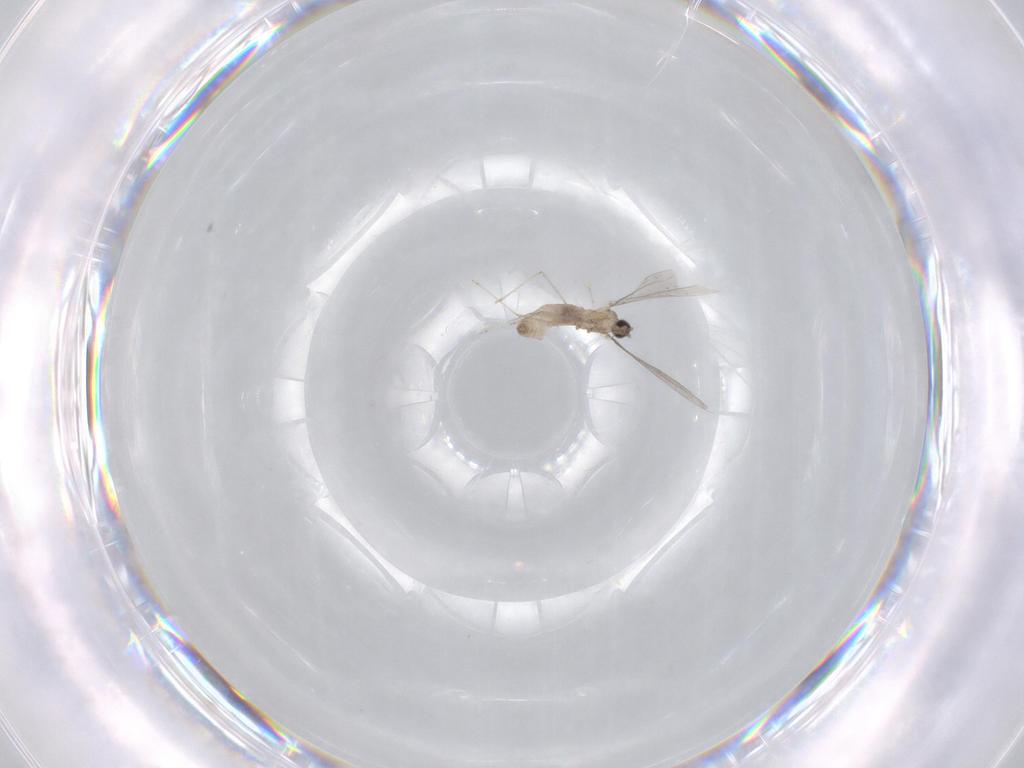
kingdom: Animalia
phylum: Arthropoda
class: Insecta
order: Diptera
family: Cecidomyiidae
